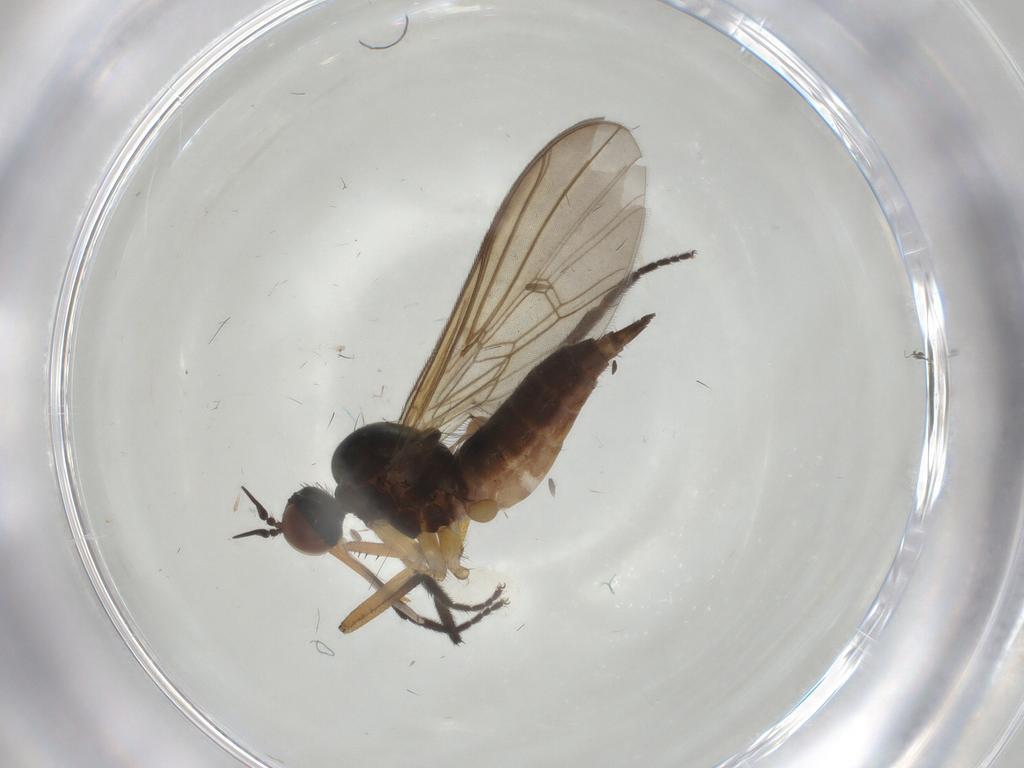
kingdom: Animalia
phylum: Arthropoda
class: Insecta
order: Diptera
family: Empididae
